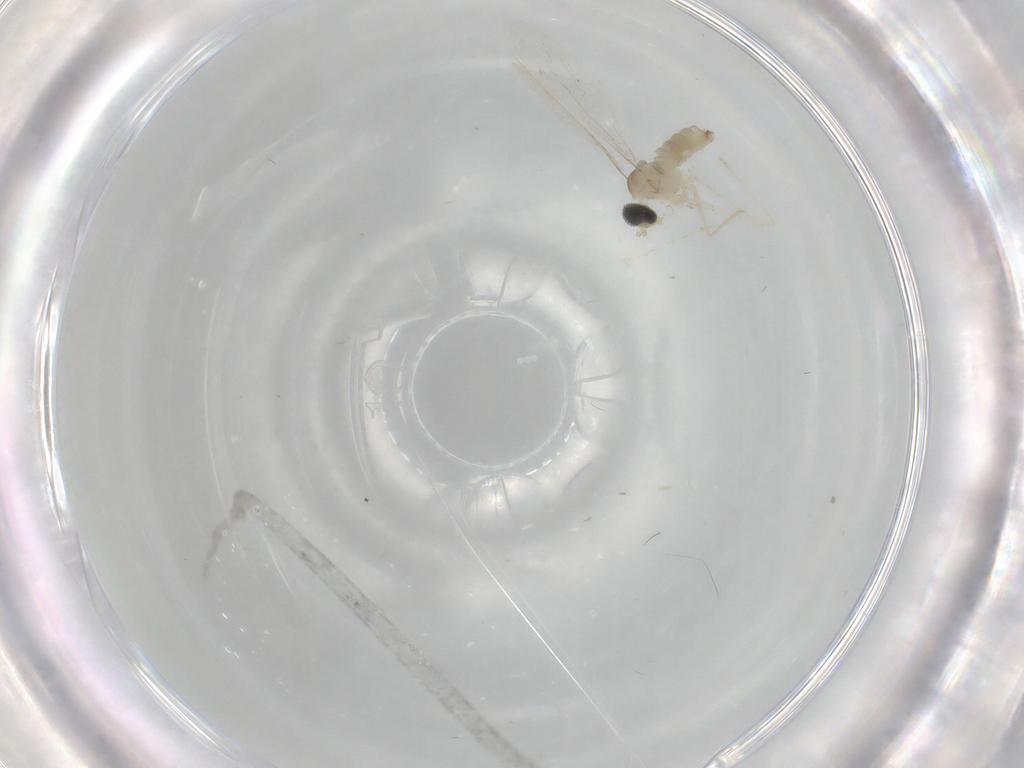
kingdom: Animalia
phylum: Arthropoda
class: Insecta
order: Diptera
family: Cecidomyiidae
